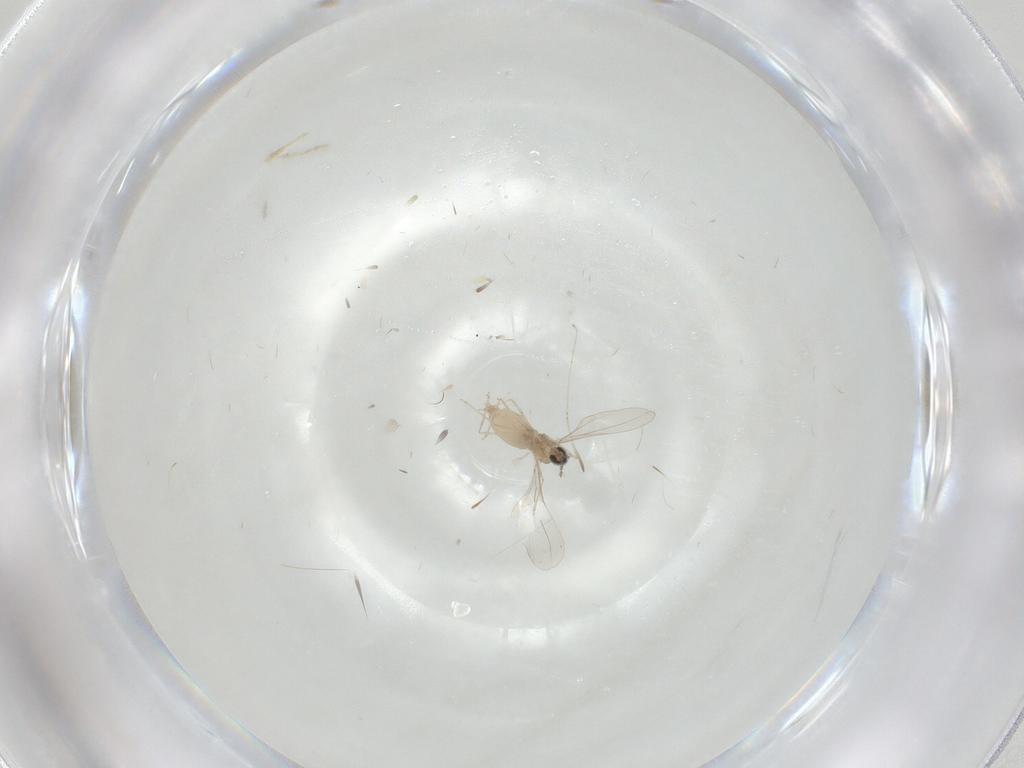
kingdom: Animalia
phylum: Arthropoda
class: Insecta
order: Diptera
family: Cecidomyiidae
